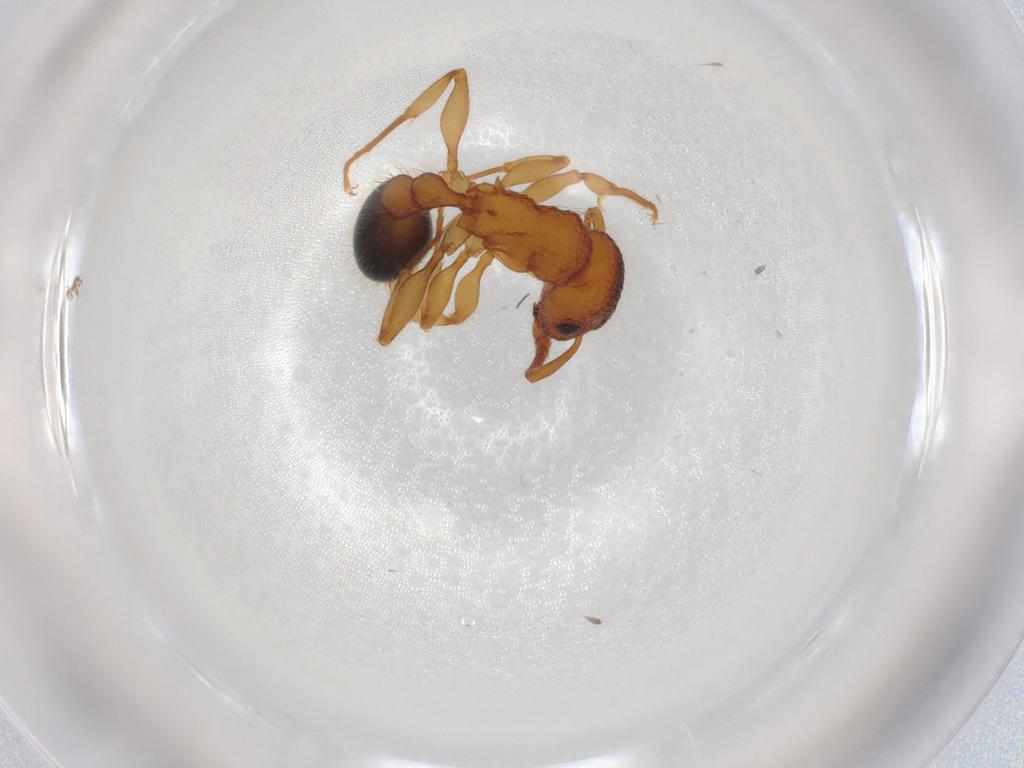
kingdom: Animalia
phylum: Arthropoda
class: Insecta
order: Hymenoptera
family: Formicidae
